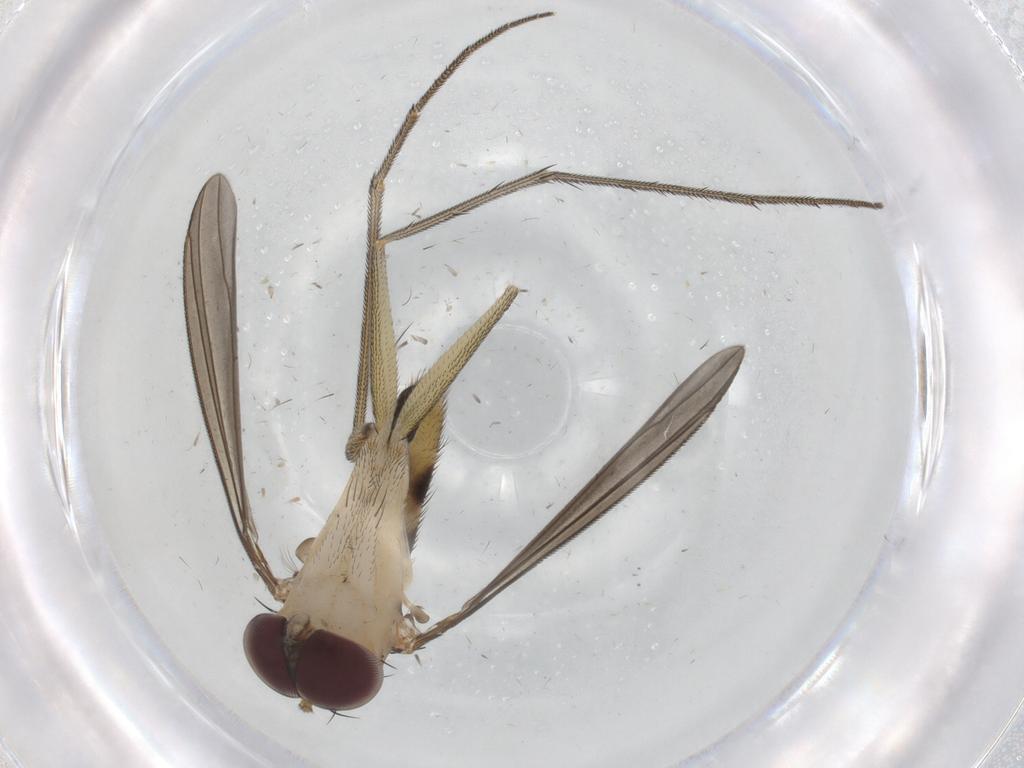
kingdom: Animalia
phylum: Arthropoda
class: Insecta
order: Diptera
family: Dolichopodidae
